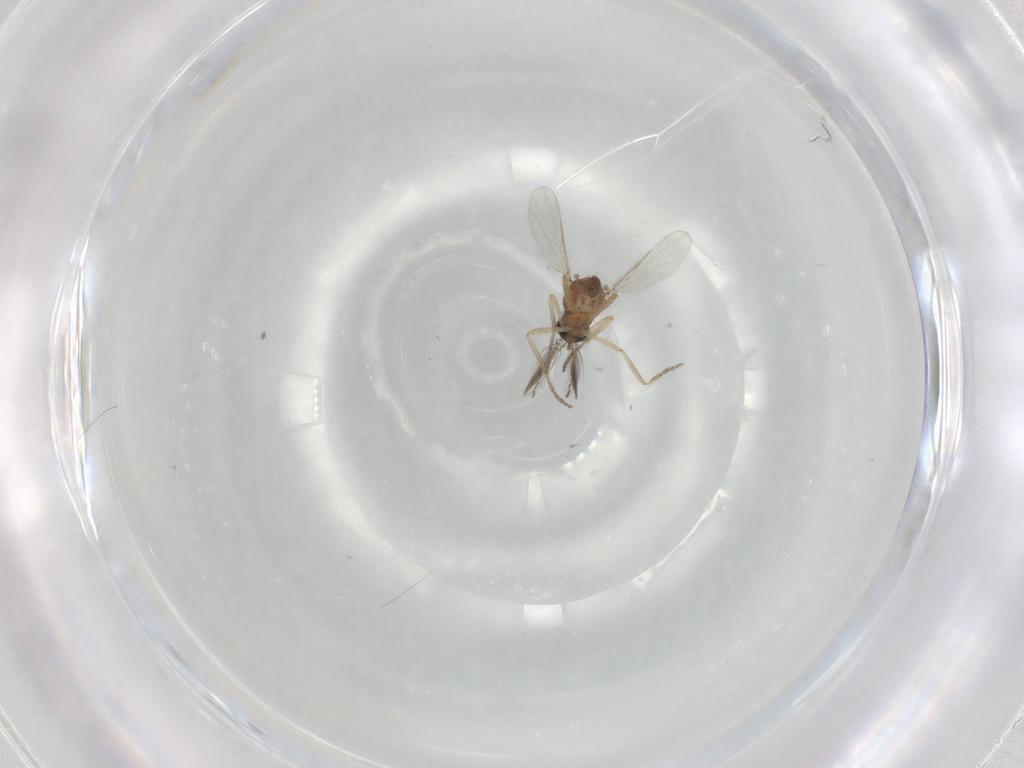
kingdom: Animalia
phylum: Arthropoda
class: Insecta
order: Diptera
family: Ceratopogonidae
